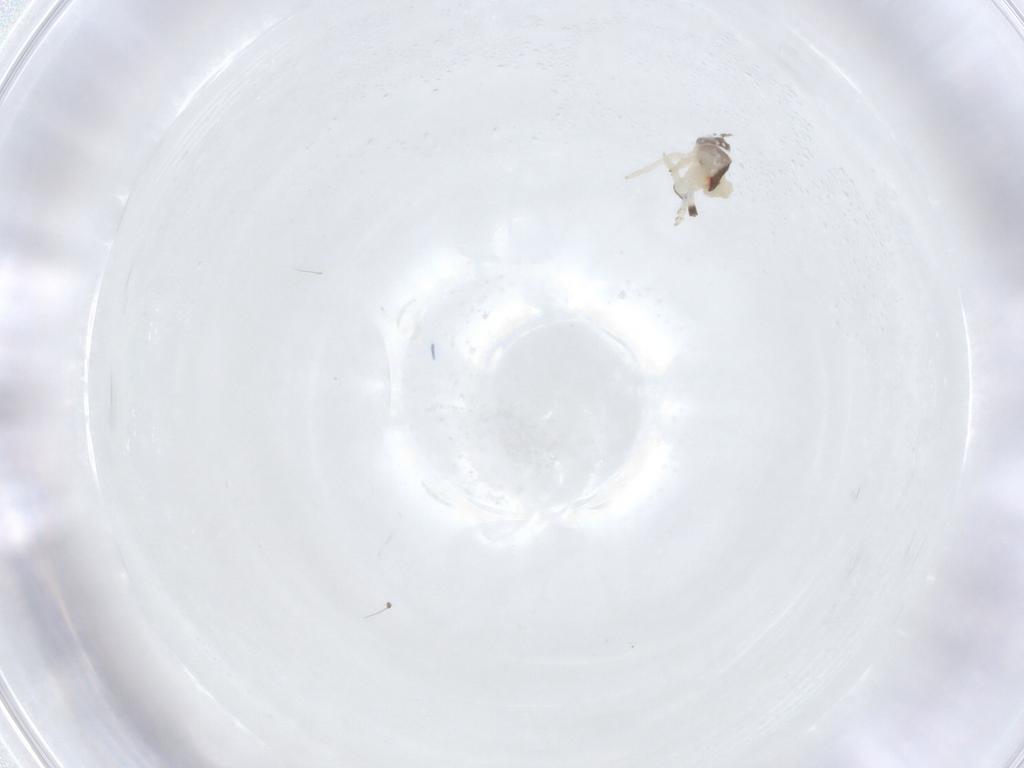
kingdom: Animalia
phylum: Arthropoda
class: Insecta
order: Hemiptera
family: Nogodinidae
